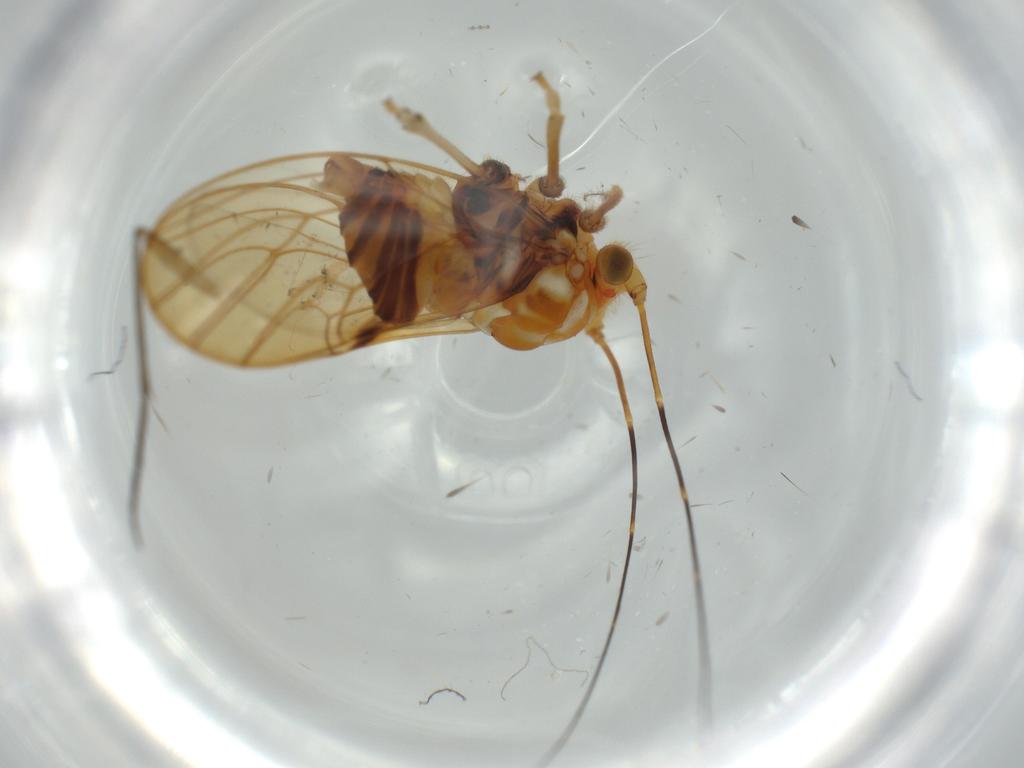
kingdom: Animalia
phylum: Arthropoda
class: Insecta
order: Hemiptera
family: Psyllidae
